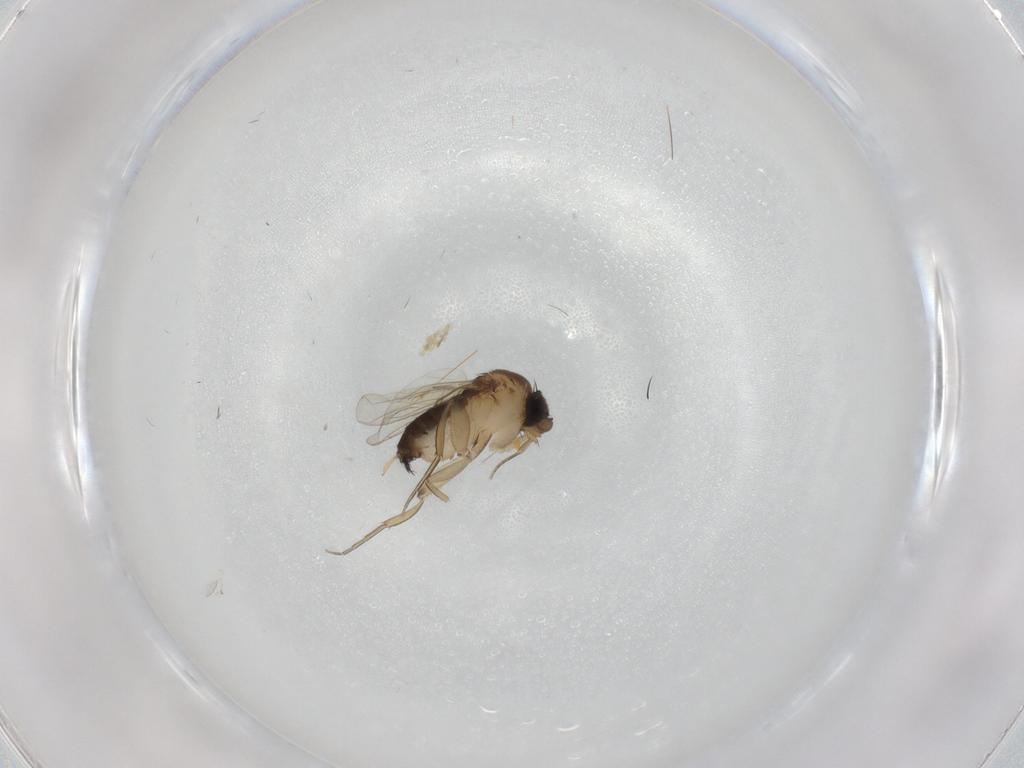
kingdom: Animalia
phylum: Arthropoda
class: Insecta
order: Diptera
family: Phoridae
